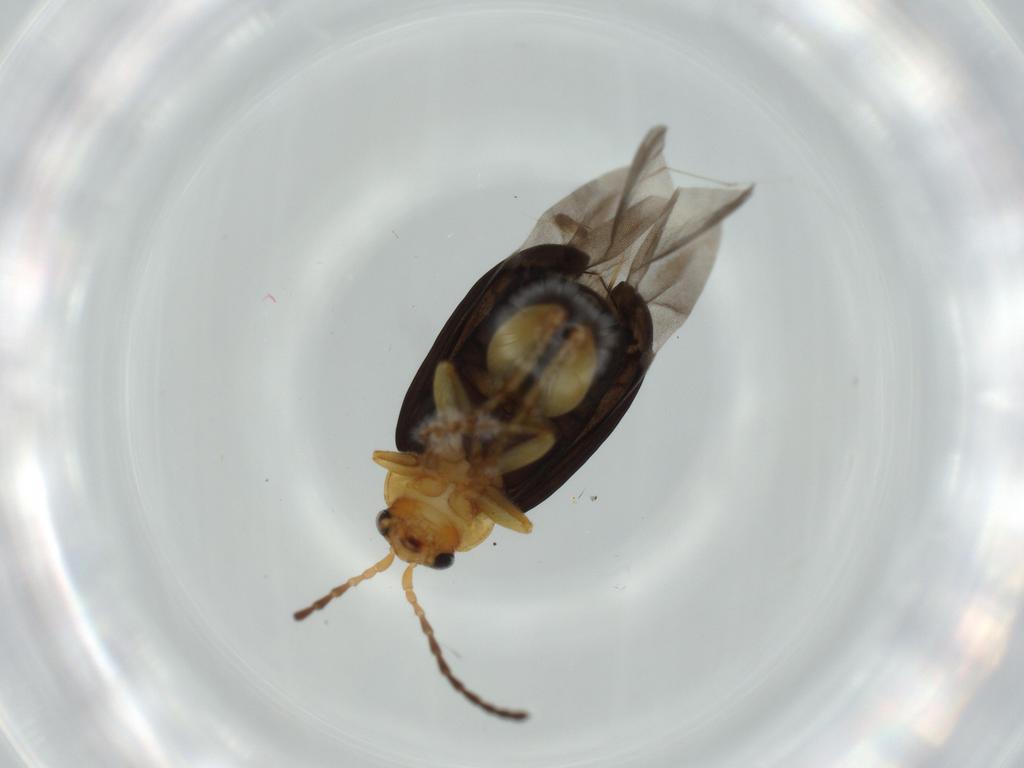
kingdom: Animalia
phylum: Arthropoda
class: Insecta
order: Coleoptera
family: Chrysomelidae
